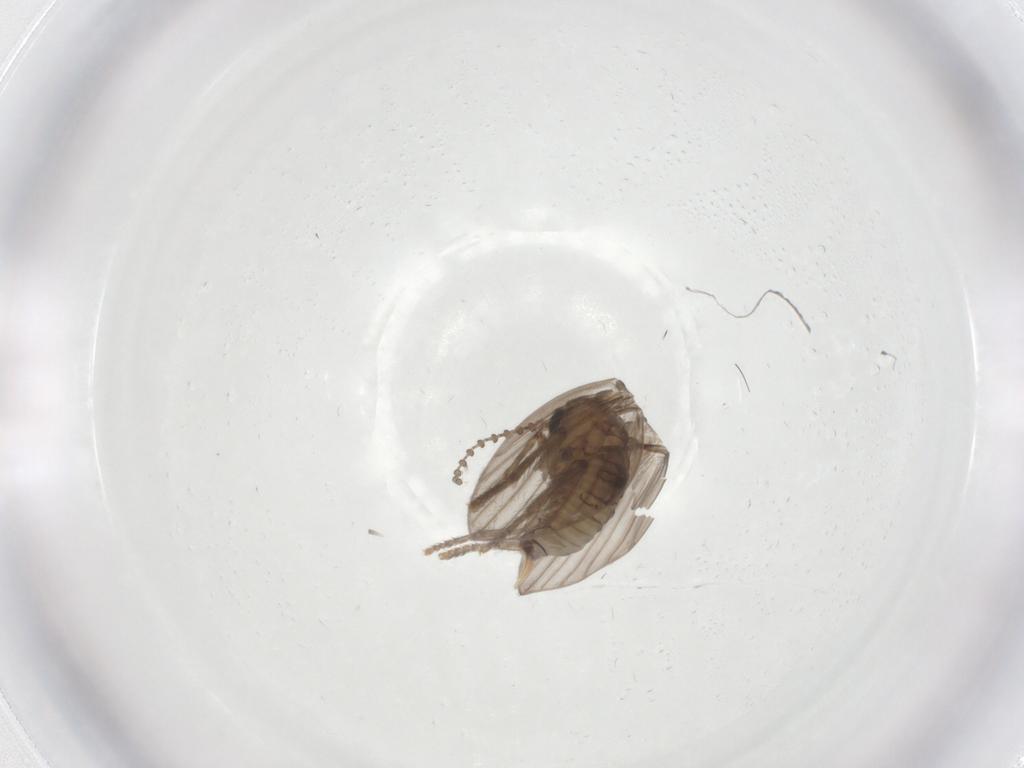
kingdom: Animalia
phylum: Arthropoda
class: Insecta
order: Diptera
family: Psychodidae
